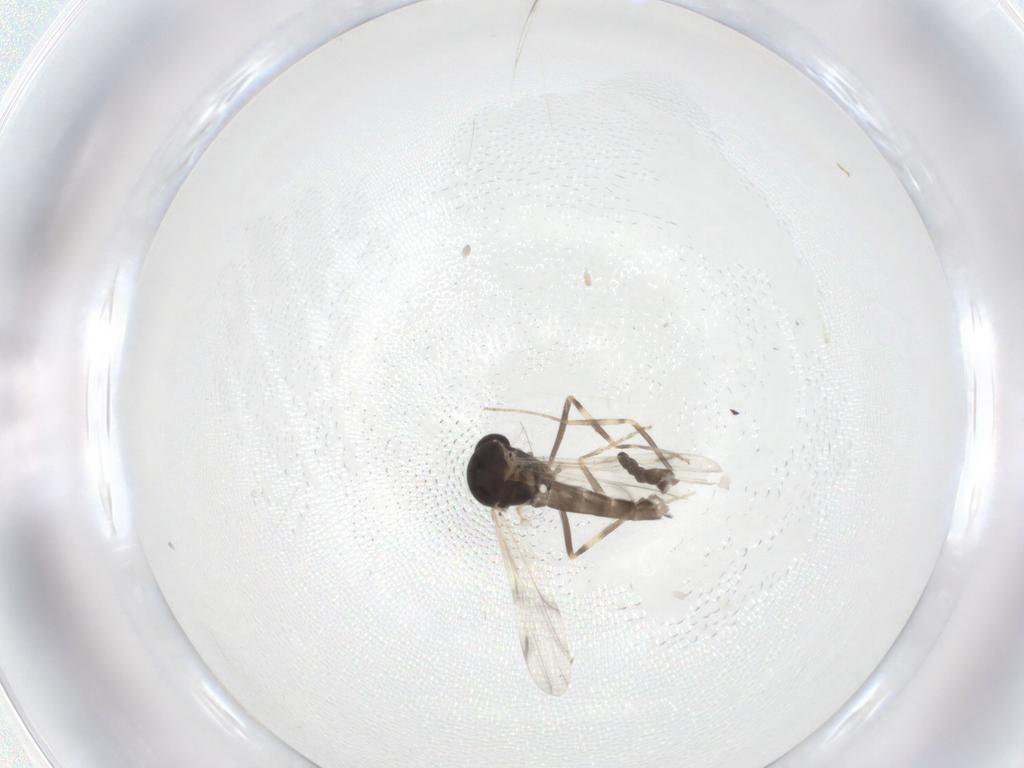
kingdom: Animalia
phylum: Arthropoda
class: Insecta
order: Diptera
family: Ceratopogonidae
